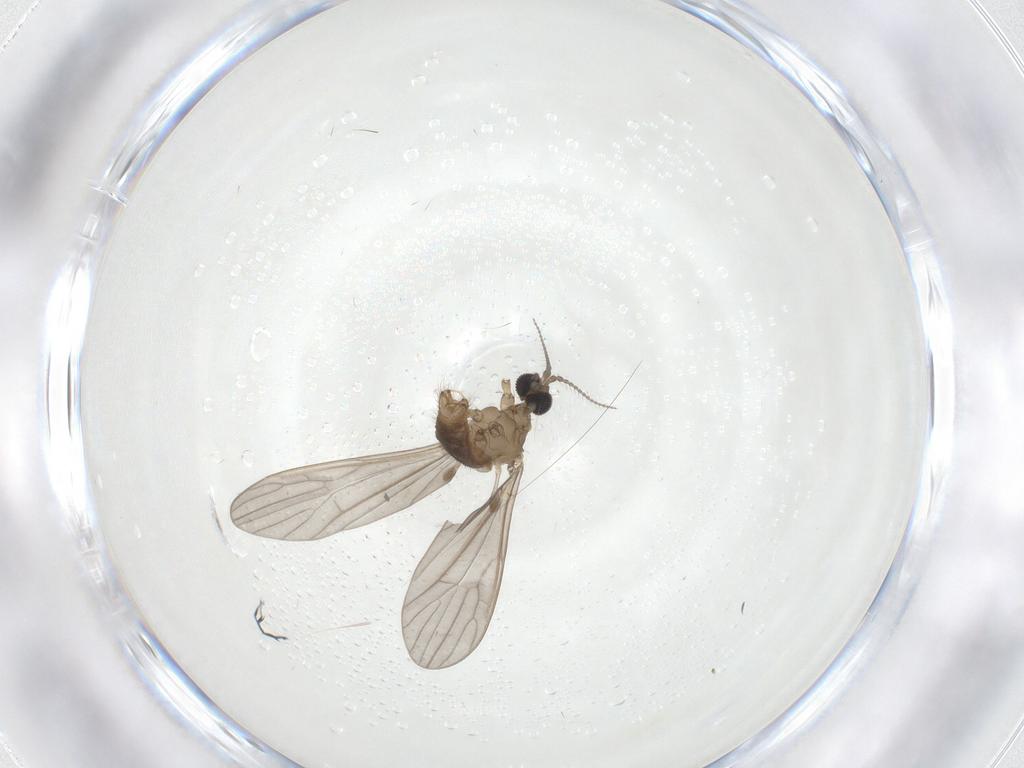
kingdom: Animalia
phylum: Arthropoda
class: Insecta
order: Diptera
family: Limoniidae
